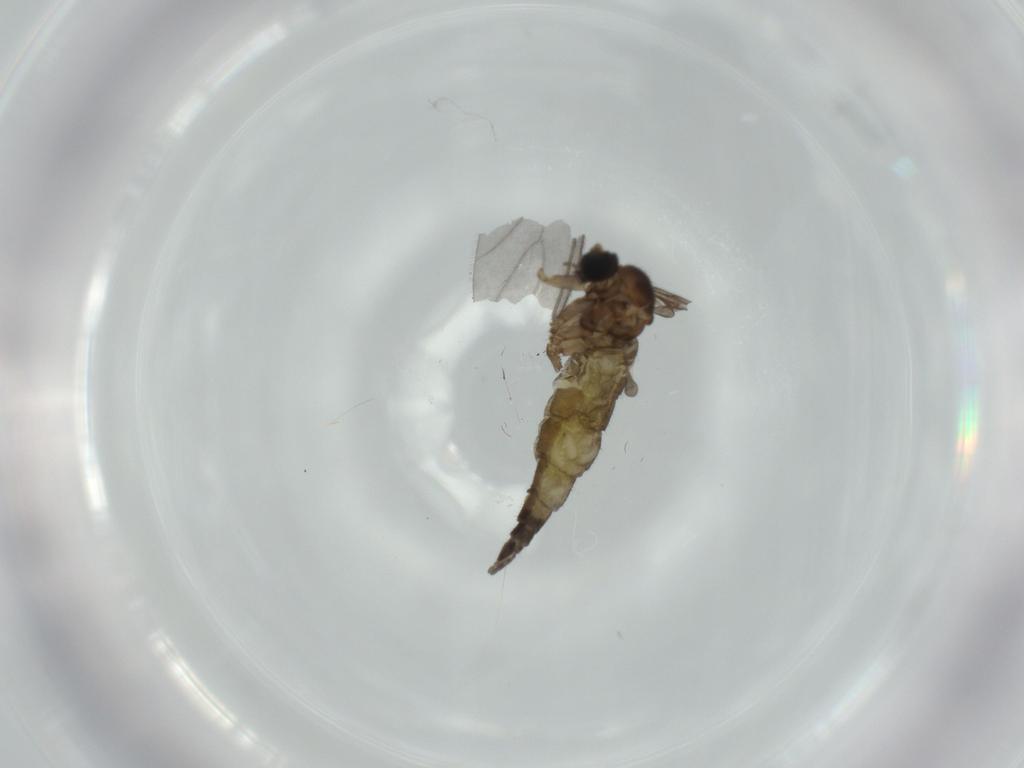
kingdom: Animalia
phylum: Arthropoda
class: Insecta
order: Diptera
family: Sciaridae
